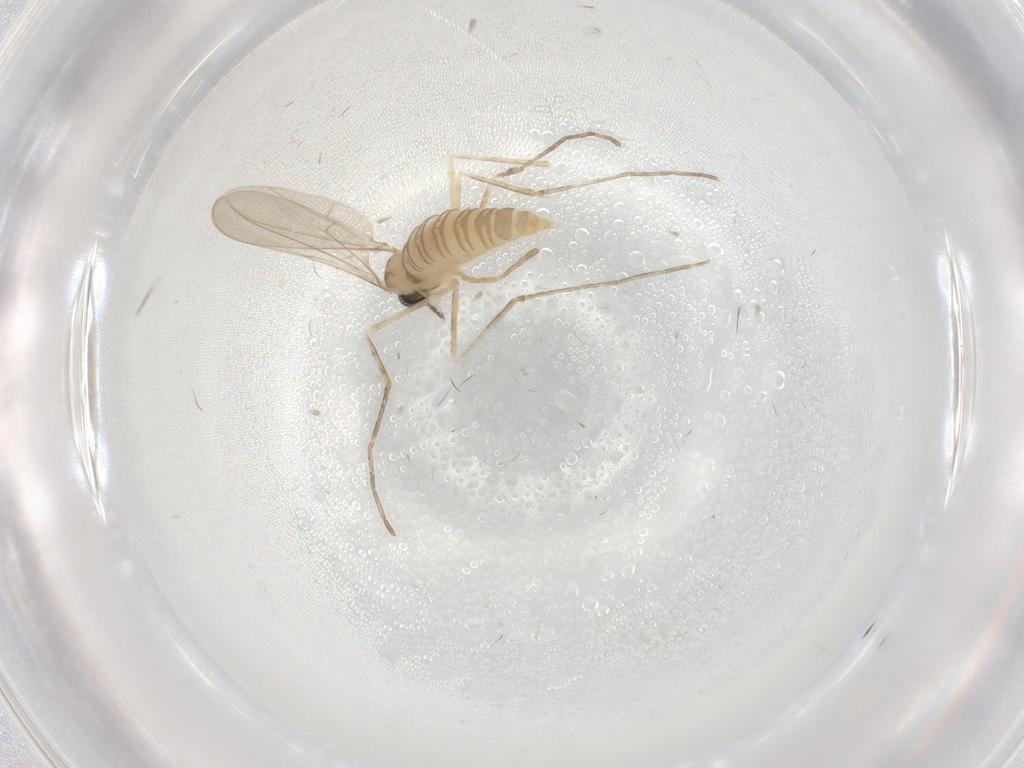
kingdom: Animalia
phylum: Arthropoda
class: Insecta
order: Diptera
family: Cecidomyiidae
